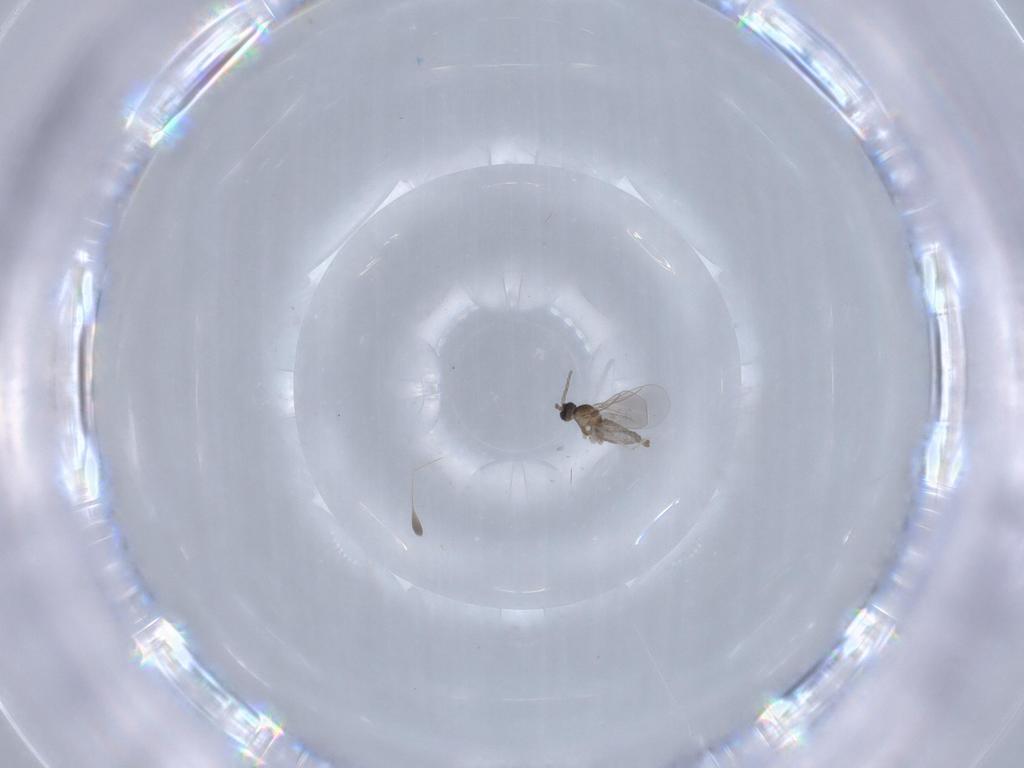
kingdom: Animalia
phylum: Arthropoda
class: Insecta
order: Diptera
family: Cecidomyiidae
